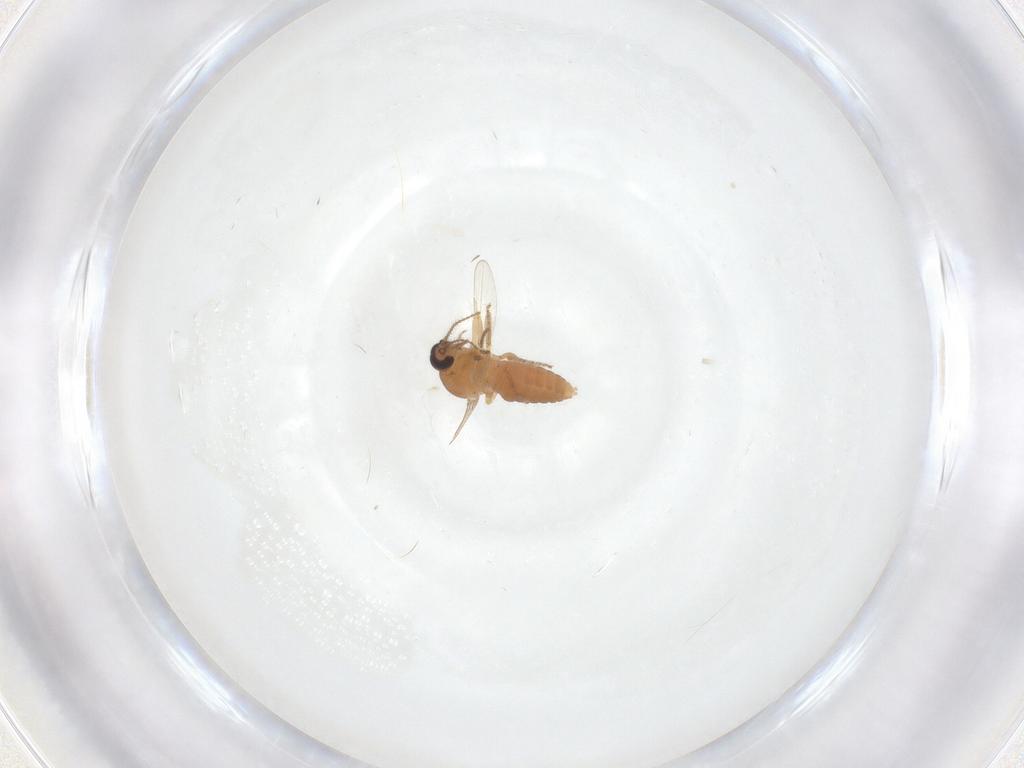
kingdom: Animalia
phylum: Arthropoda
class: Insecta
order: Diptera
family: Ceratopogonidae
